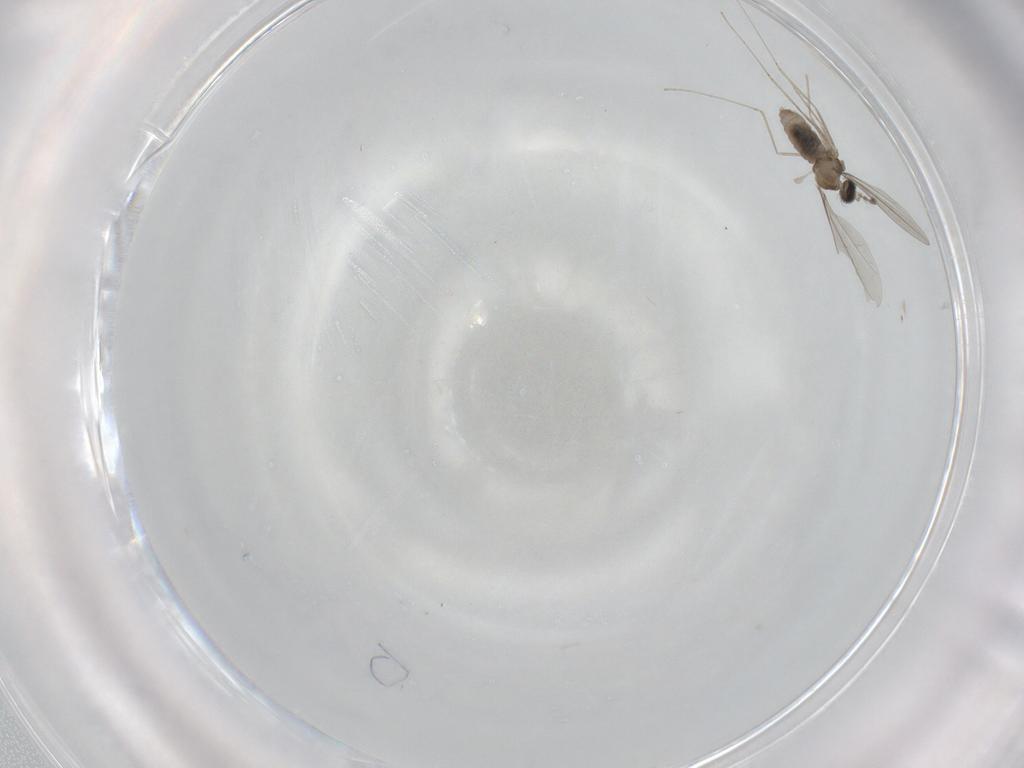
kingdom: Animalia
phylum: Arthropoda
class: Insecta
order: Diptera
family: Cecidomyiidae
